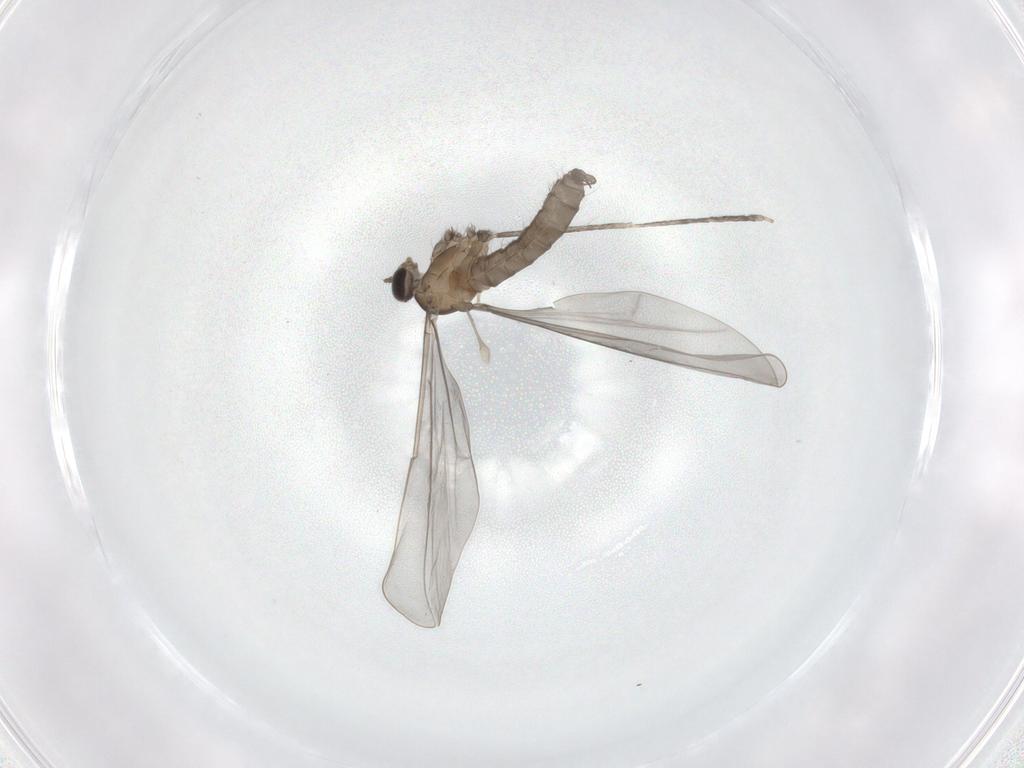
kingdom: Animalia
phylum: Arthropoda
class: Insecta
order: Diptera
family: Cecidomyiidae
